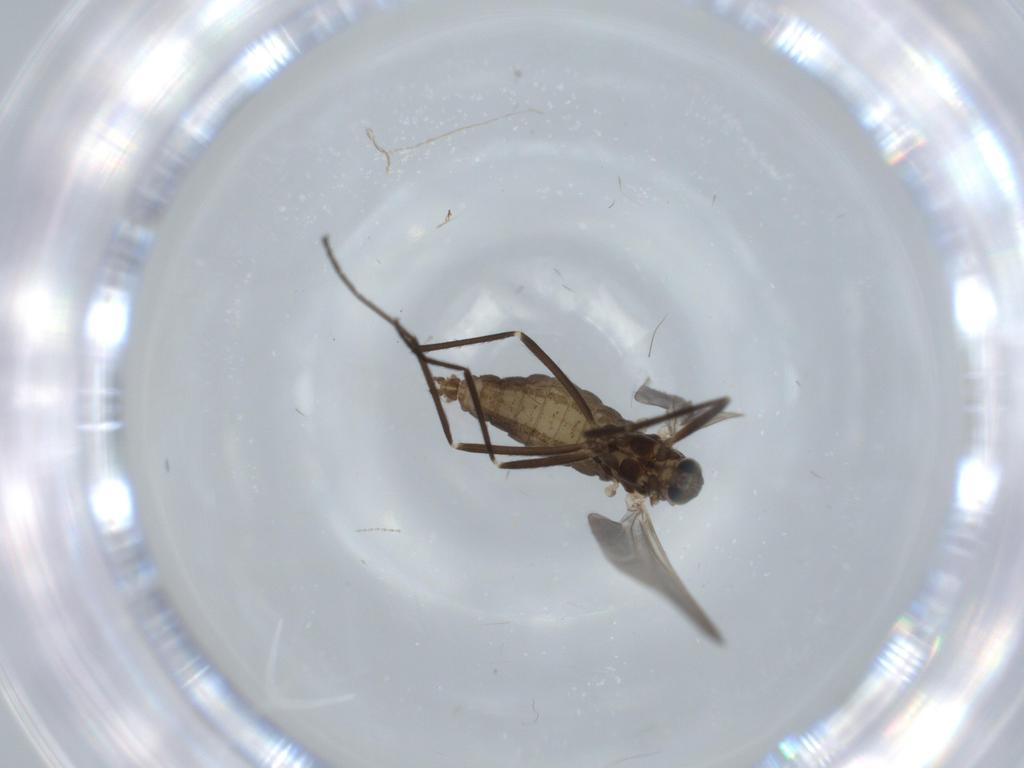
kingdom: Animalia
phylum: Arthropoda
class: Insecta
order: Diptera
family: Cecidomyiidae
